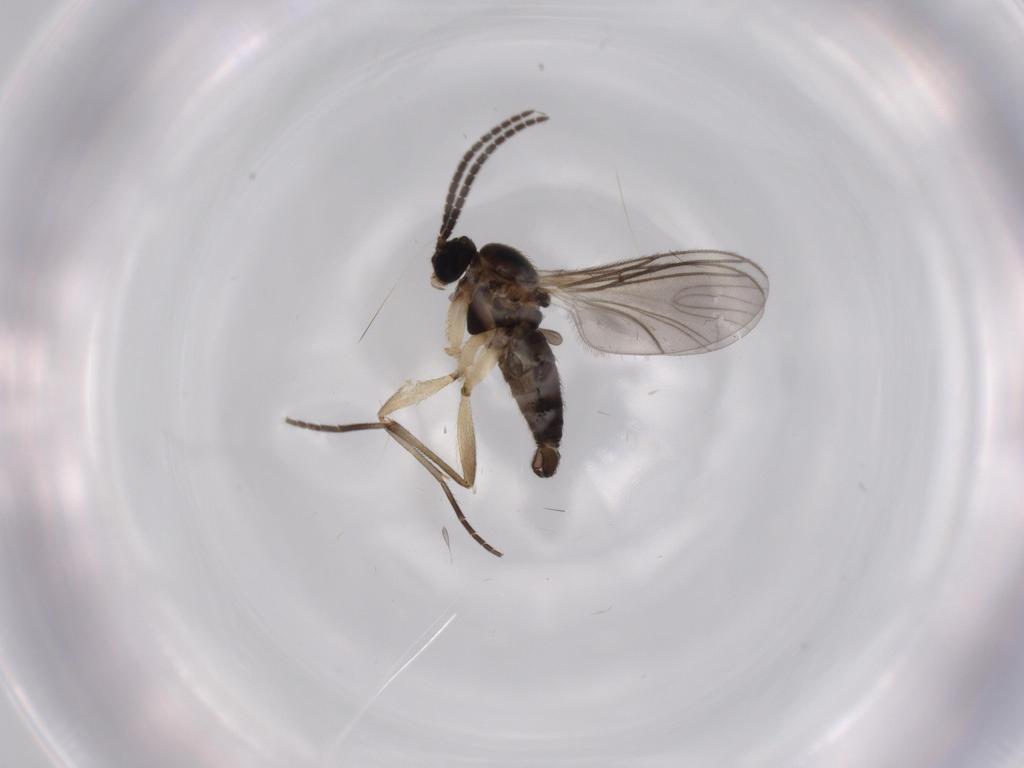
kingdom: Animalia
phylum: Arthropoda
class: Insecta
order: Diptera
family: Sciaridae
